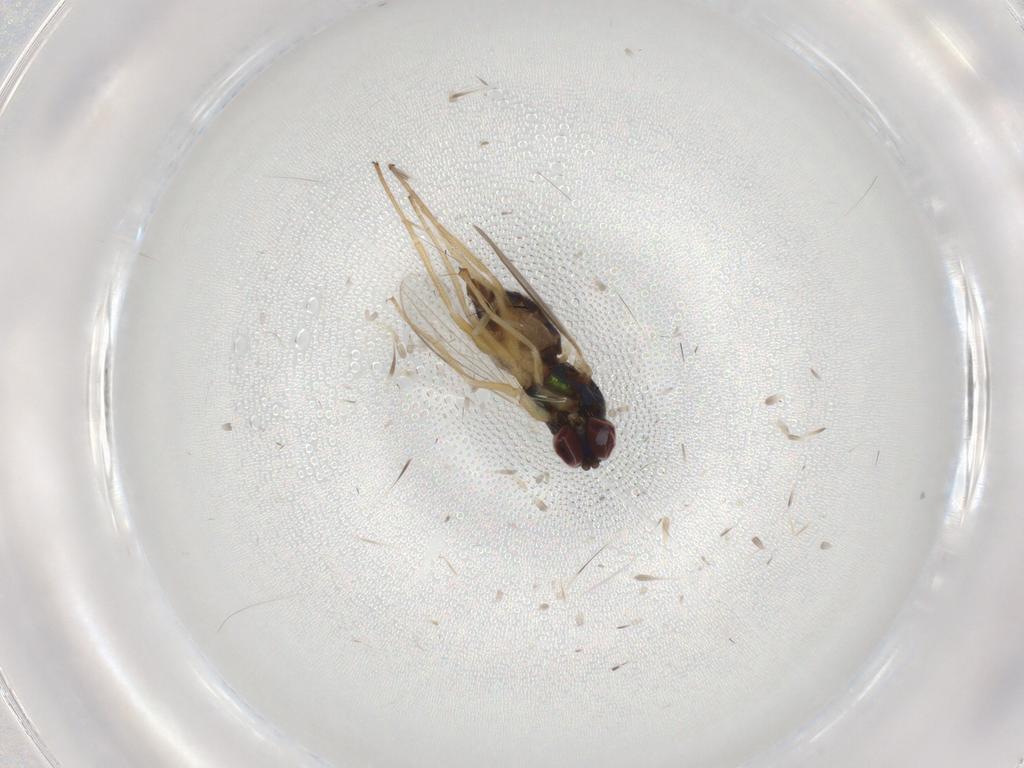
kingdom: Animalia
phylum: Arthropoda
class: Insecta
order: Diptera
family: Dolichopodidae
